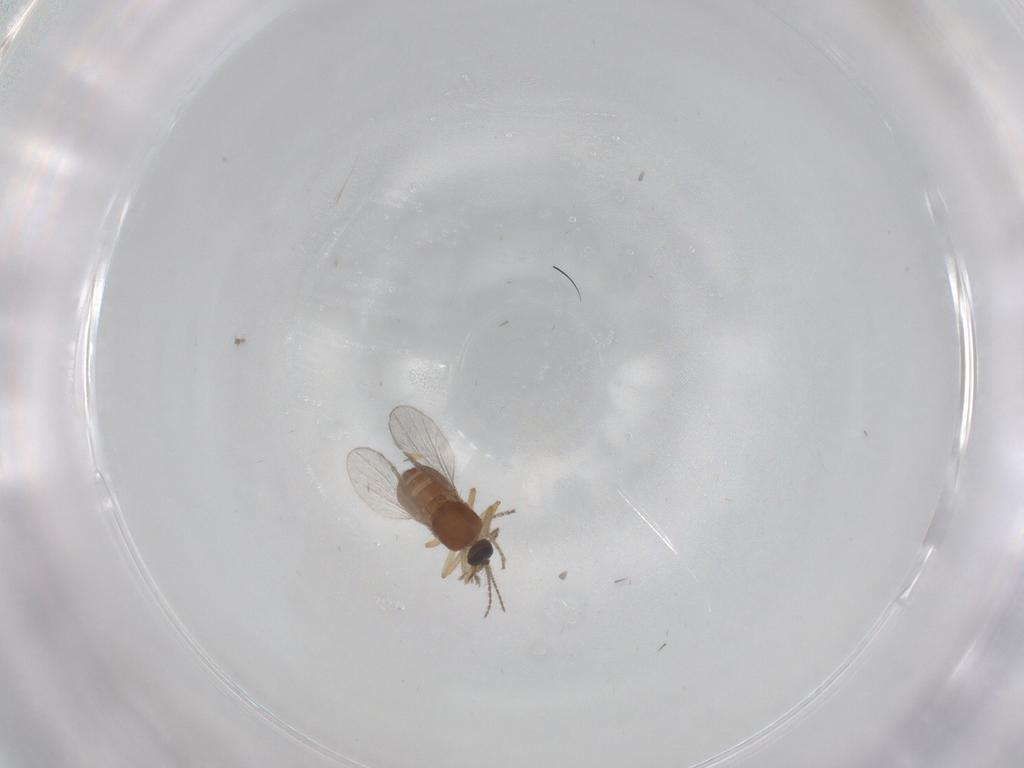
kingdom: Animalia
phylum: Arthropoda
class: Insecta
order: Diptera
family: Ceratopogonidae
